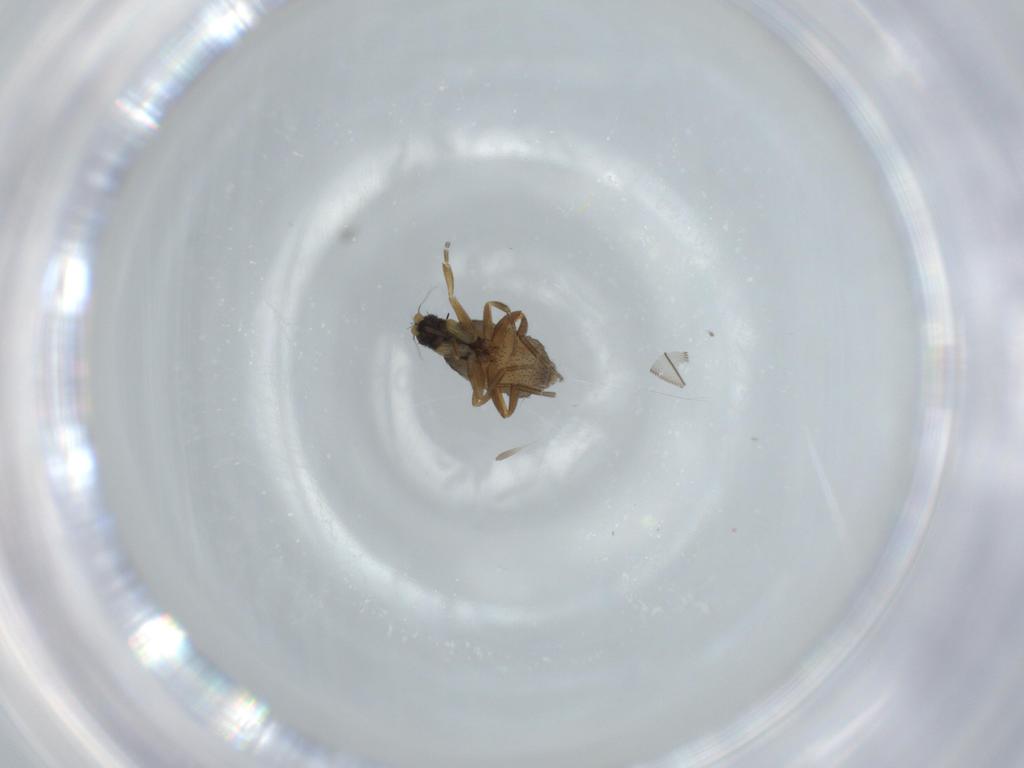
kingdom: Animalia
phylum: Arthropoda
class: Insecta
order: Diptera
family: Phoridae
